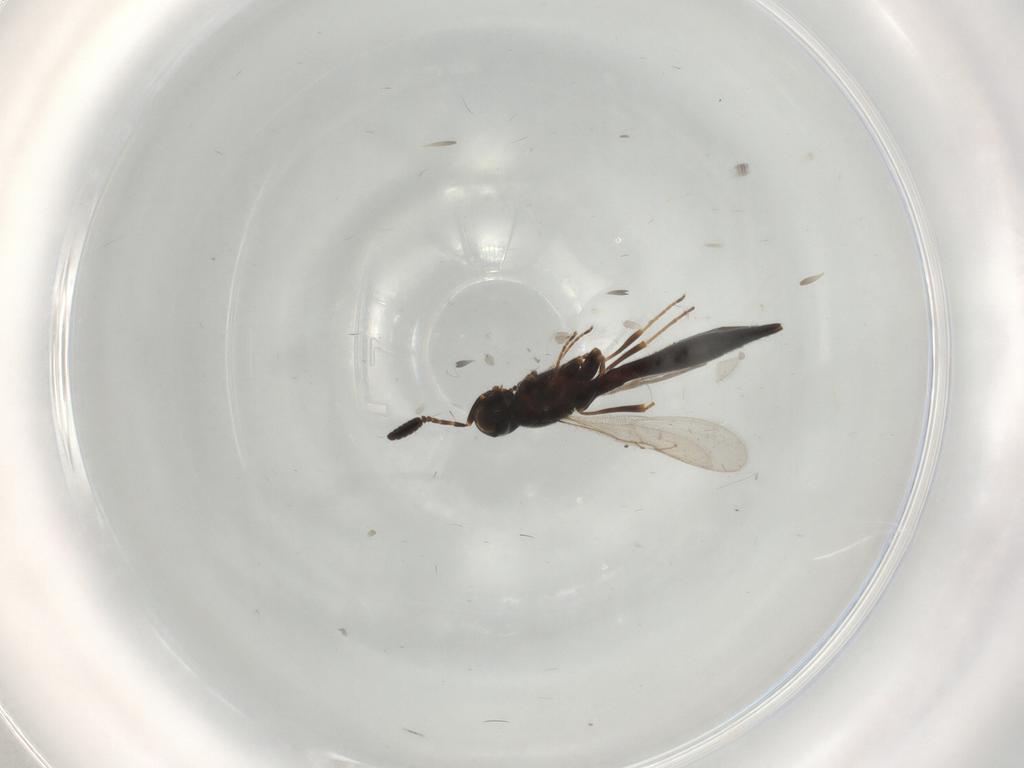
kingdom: Animalia
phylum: Arthropoda
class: Insecta
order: Hymenoptera
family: Scelionidae
